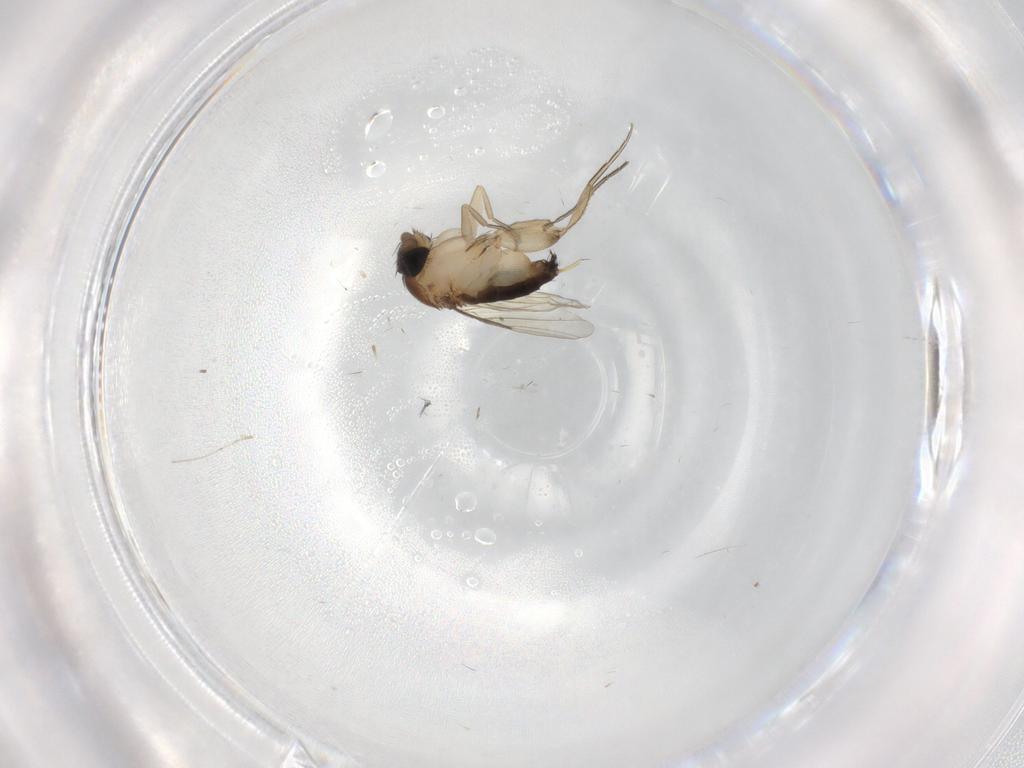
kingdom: Animalia
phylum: Arthropoda
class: Insecta
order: Diptera
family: Phoridae
